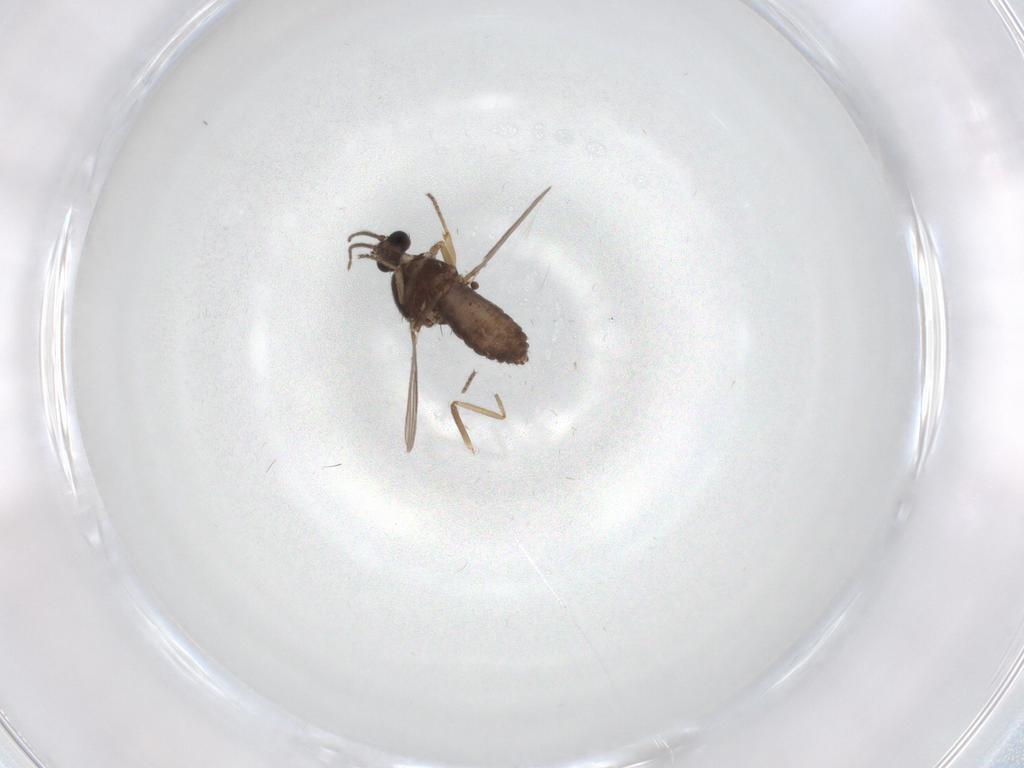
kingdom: Animalia
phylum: Arthropoda
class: Insecta
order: Diptera
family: Ceratopogonidae
